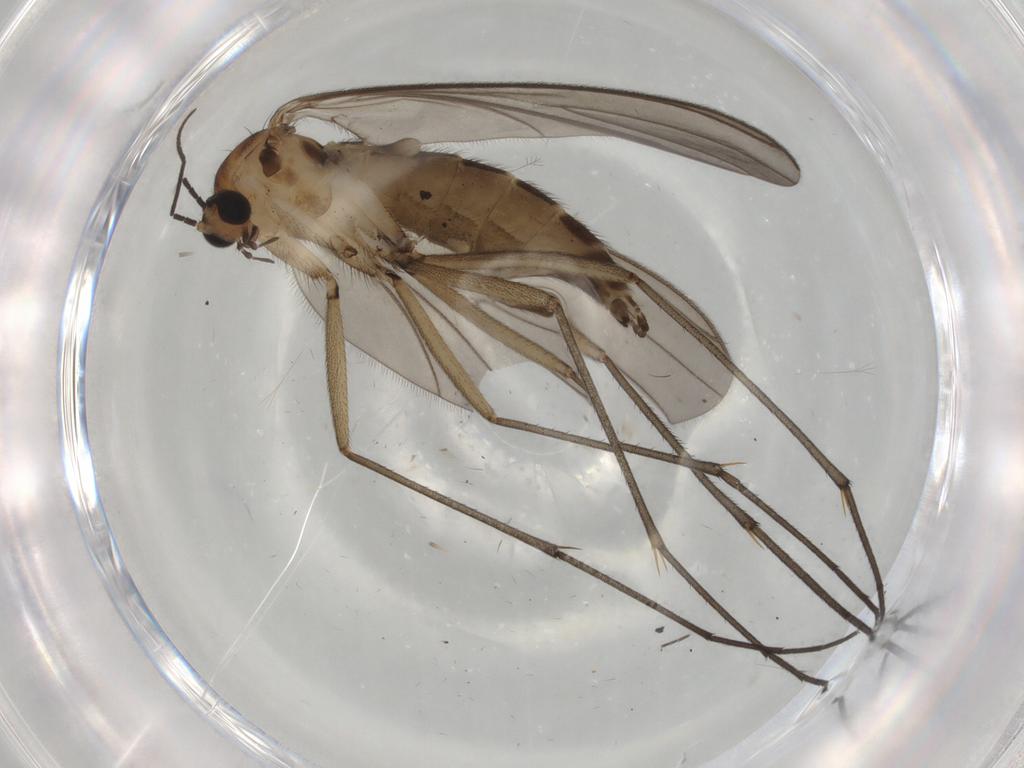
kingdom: Animalia
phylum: Arthropoda
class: Insecta
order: Diptera
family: Sciaridae
